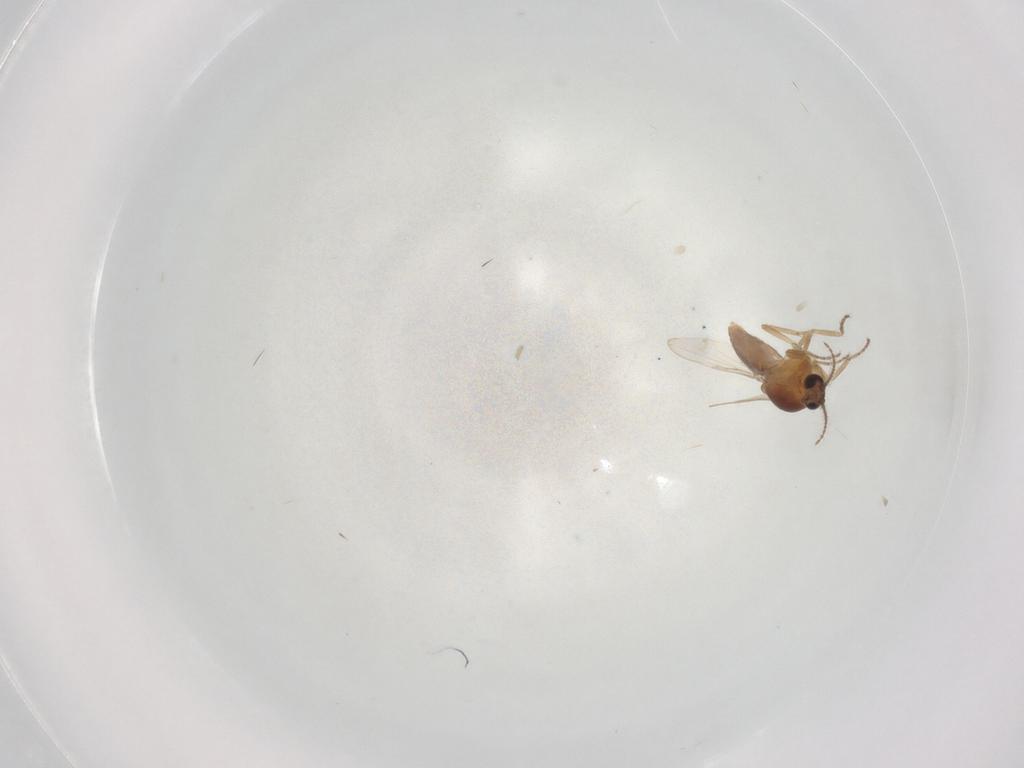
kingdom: Animalia
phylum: Arthropoda
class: Insecta
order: Diptera
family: Ceratopogonidae
